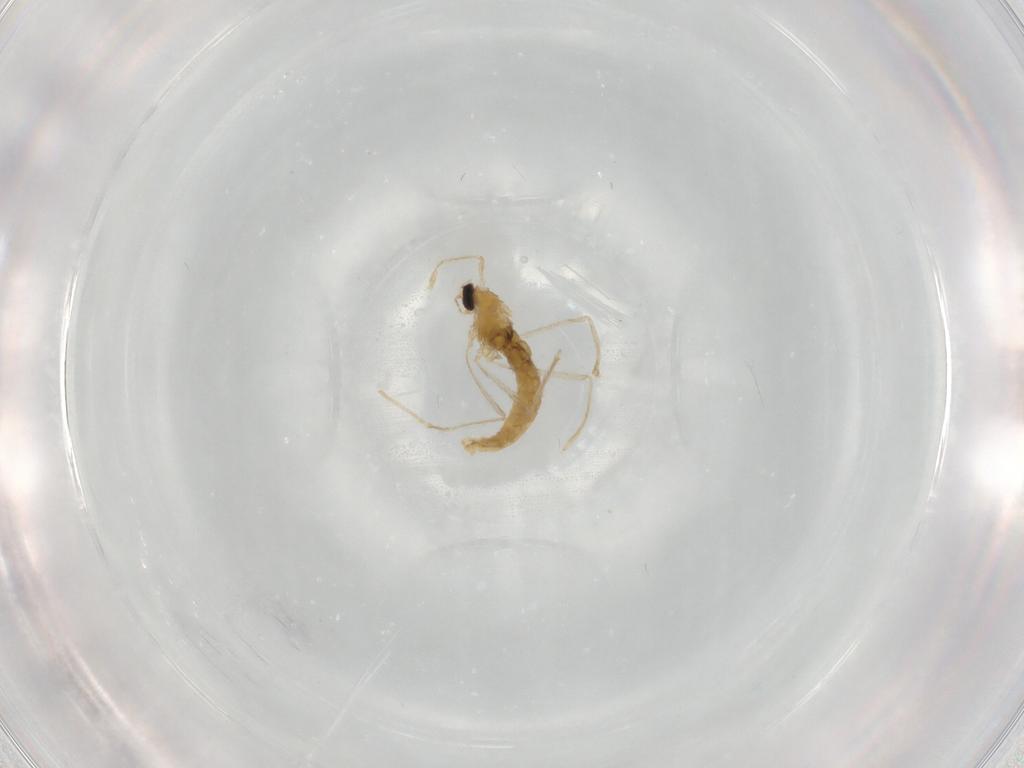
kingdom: Animalia
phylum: Arthropoda
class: Insecta
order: Diptera
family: Cecidomyiidae
